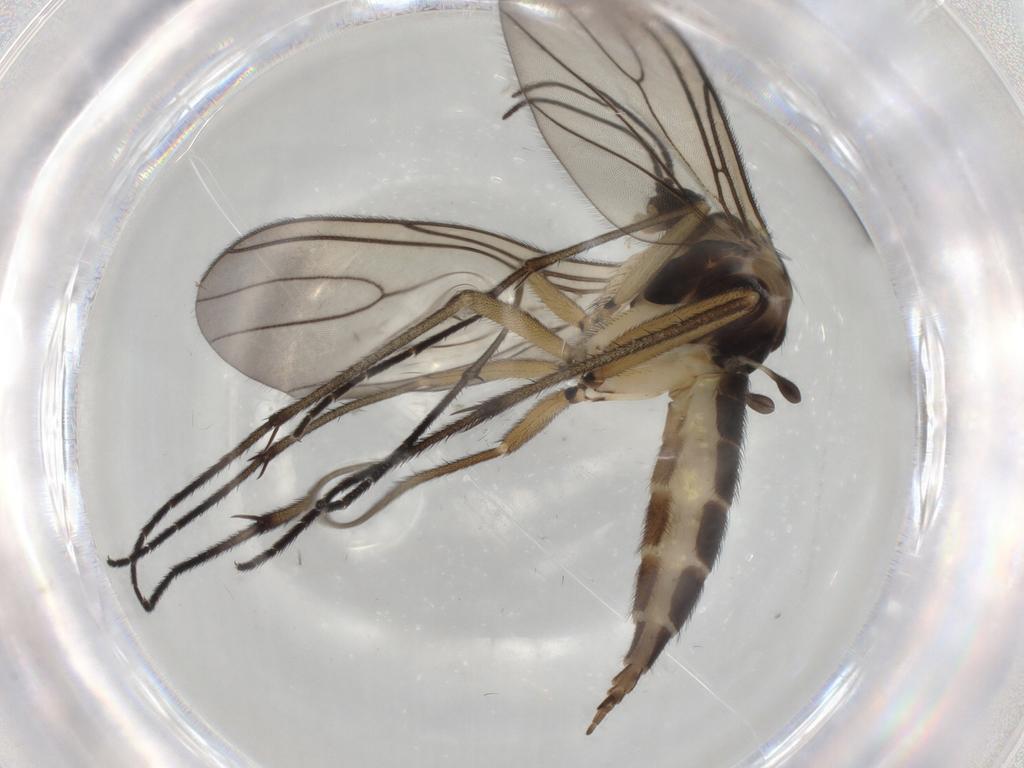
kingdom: Animalia
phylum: Arthropoda
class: Insecta
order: Diptera
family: Sciaridae
